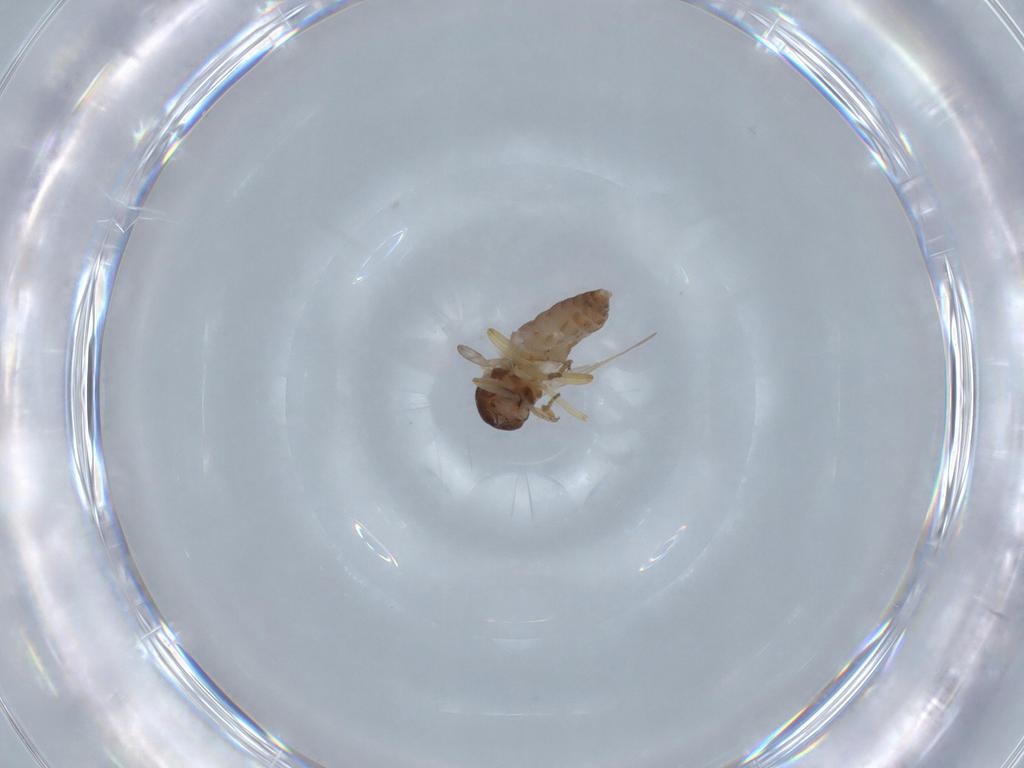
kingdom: Animalia
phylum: Arthropoda
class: Insecta
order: Diptera
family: Ceratopogonidae
